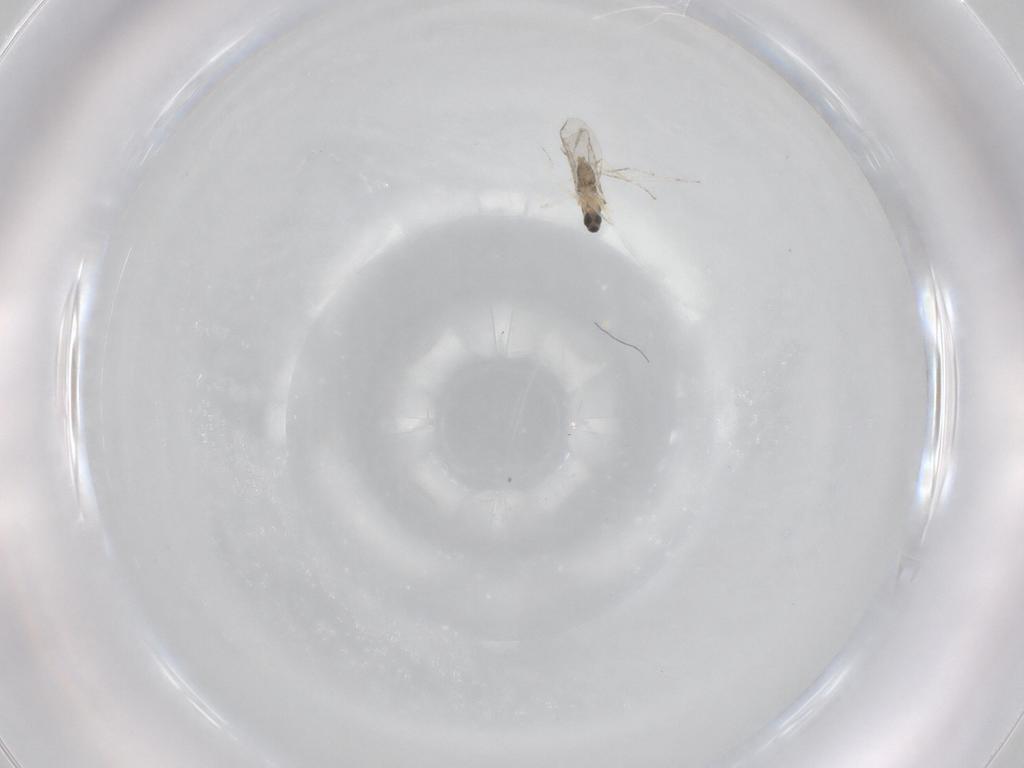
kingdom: Animalia
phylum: Arthropoda
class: Insecta
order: Diptera
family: Cecidomyiidae
